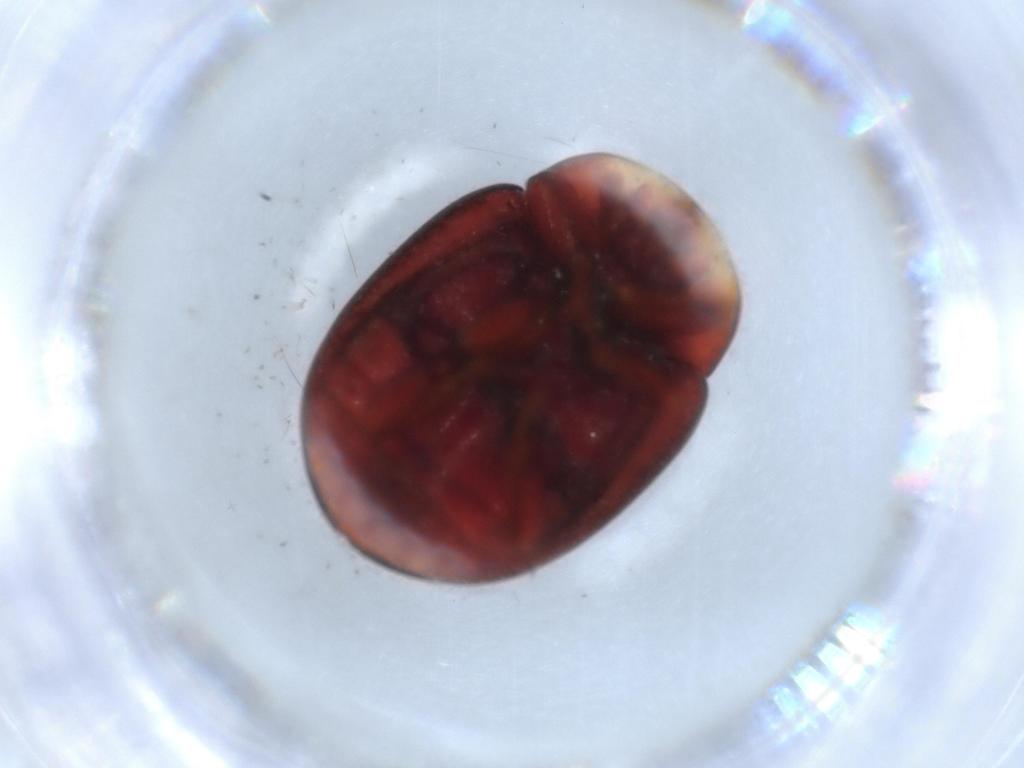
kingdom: Animalia
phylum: Arthropoda
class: Insecta
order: Coleoptera
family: Coccinellidae
